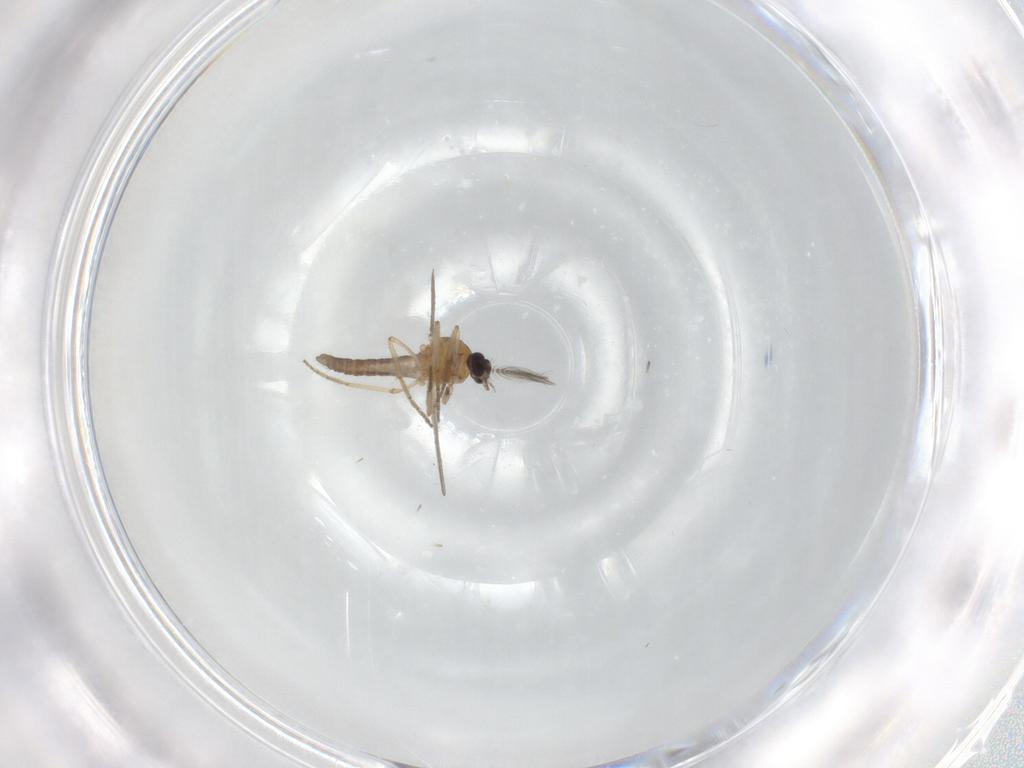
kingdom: Animalia
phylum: Arthropoda
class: Insecta
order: Diptera
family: Dolichopodidae
